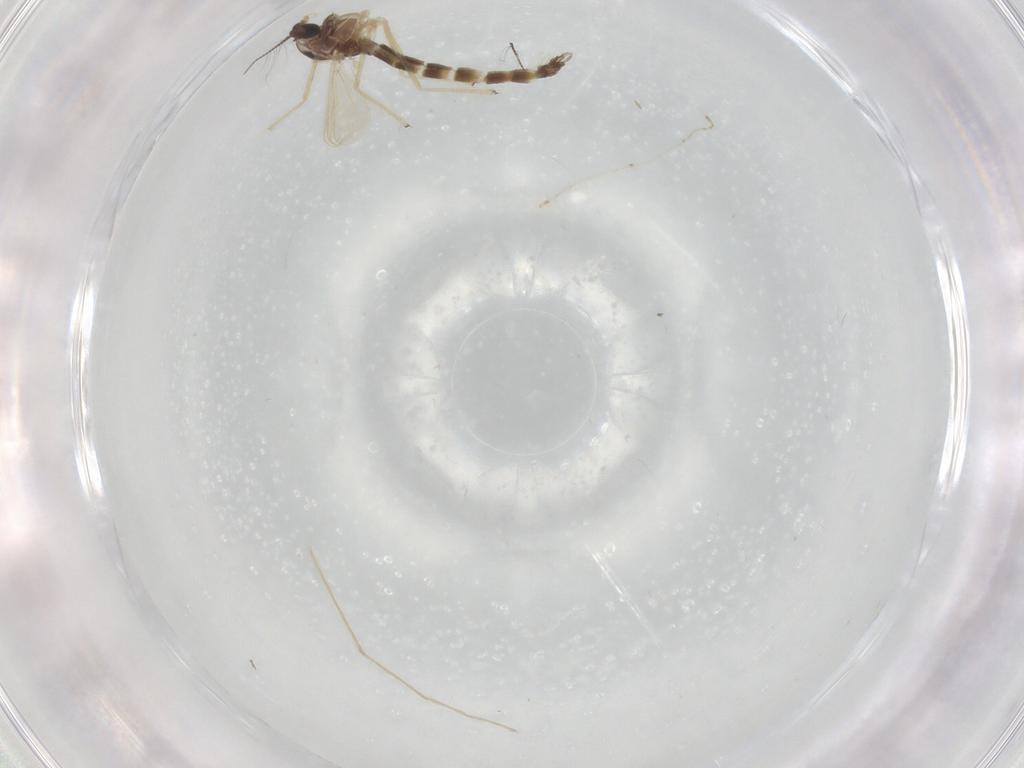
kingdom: Animalia
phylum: Arthropoda
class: Insecta
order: Diptera
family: Chironomidae
